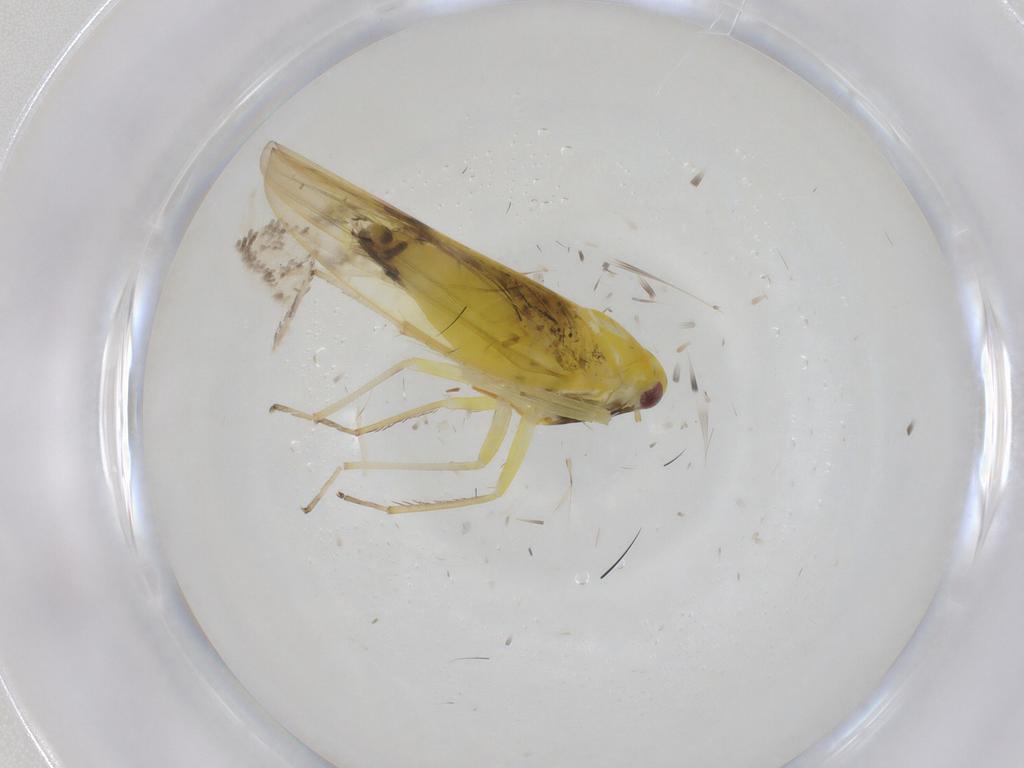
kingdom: Animalia
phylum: Arthropoda
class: Insecta
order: Hemiptera
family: Cicadellidae
